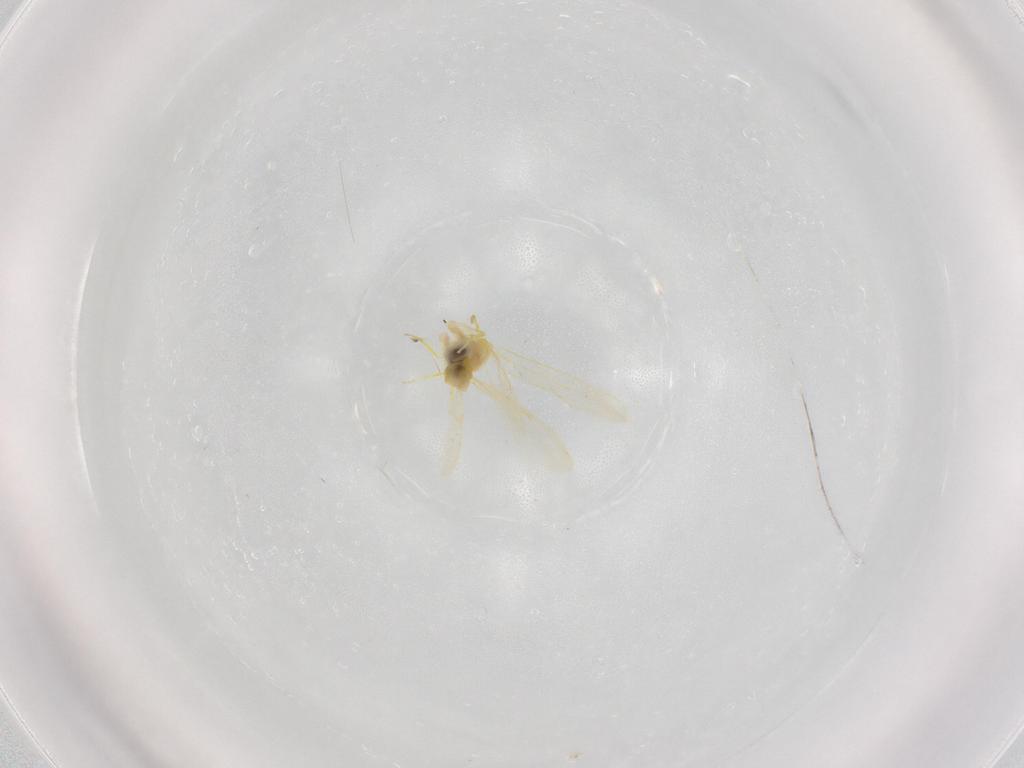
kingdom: Animalia
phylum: Arthropoda
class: Insecta
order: Hemiptera
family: Aleyrodidae
